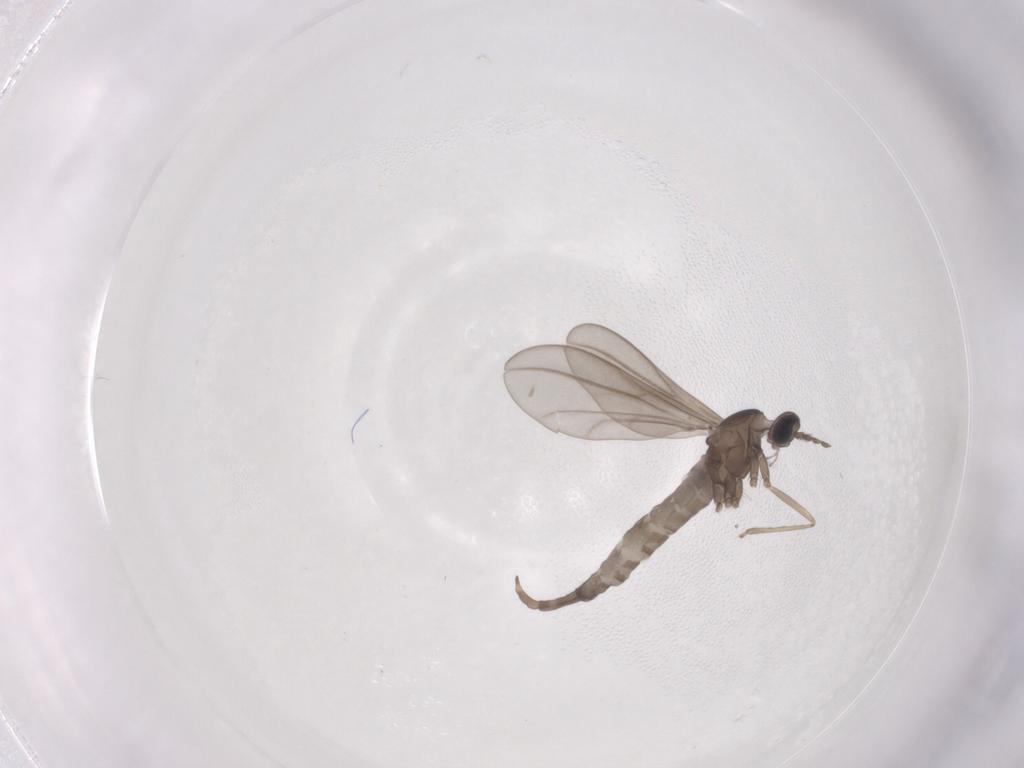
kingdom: Animalia
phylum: Arthropoda
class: Insecta
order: Diptera
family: Cecidomyiidae
